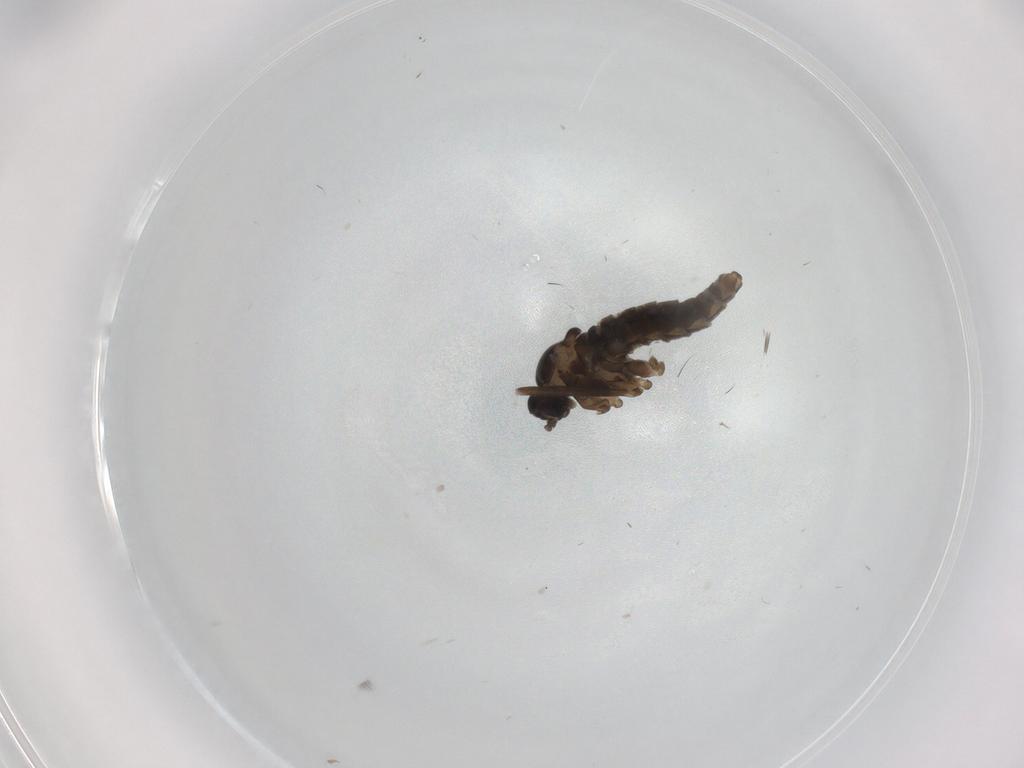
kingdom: Animalia
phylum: Arthropoda
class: Insecta
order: Diptera
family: Cecidomyiidae
